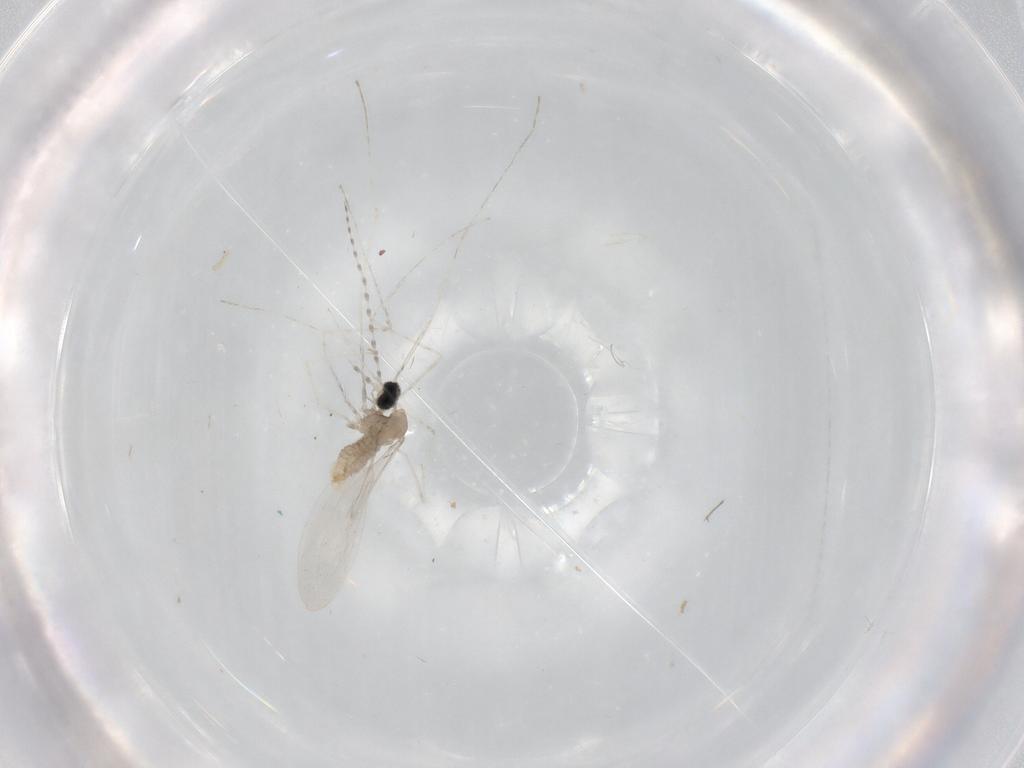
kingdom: Animalia
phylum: Arthropoda
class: Insecta
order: Diptera
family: Cecidomyiidae
